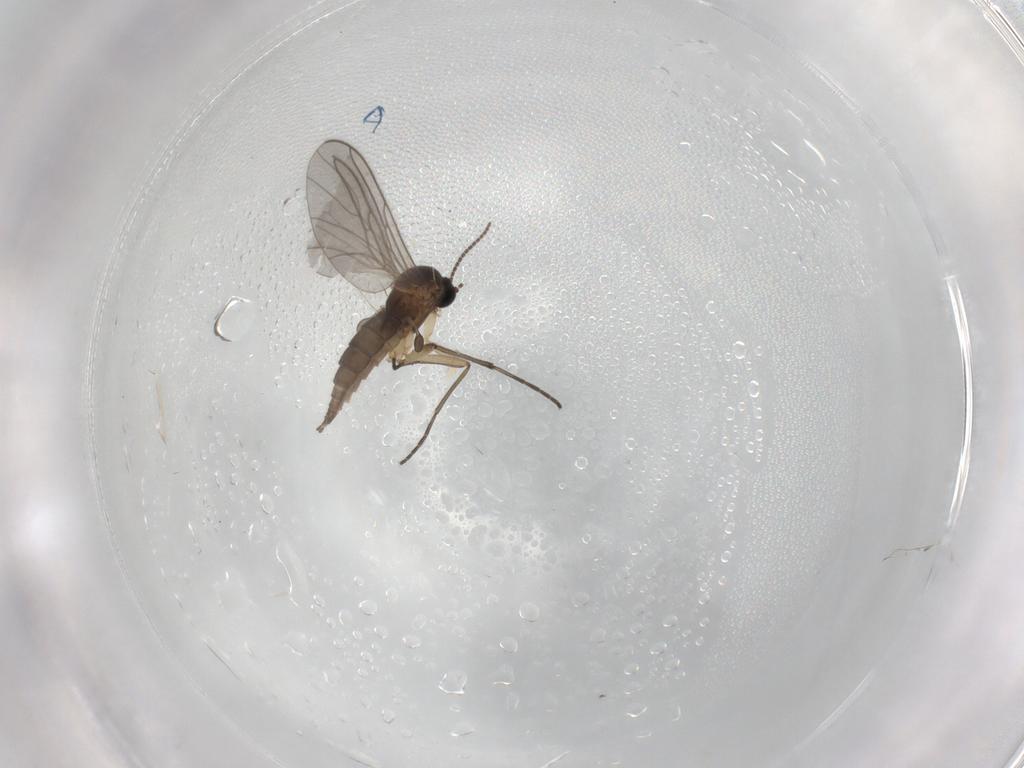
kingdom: Animalia
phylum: Arthropoda
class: Insecta
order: Diptera
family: Sciaridae
